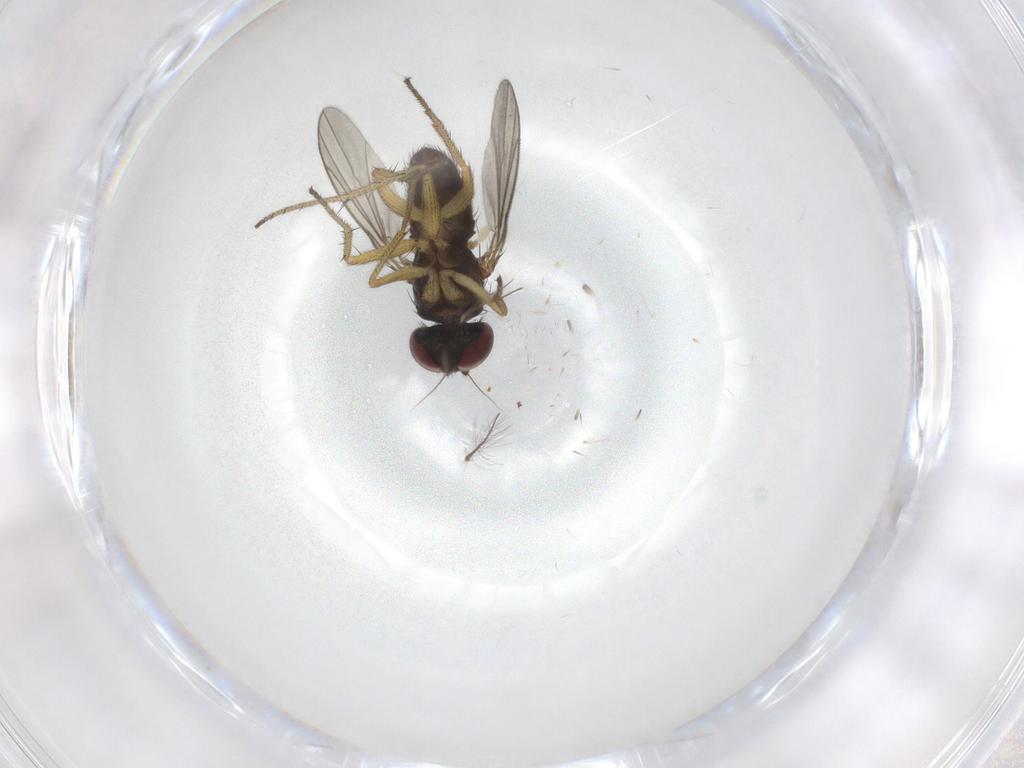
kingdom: Animalia
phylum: Arthropoda
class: Insecta
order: Diptera
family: Dolichopodidae
